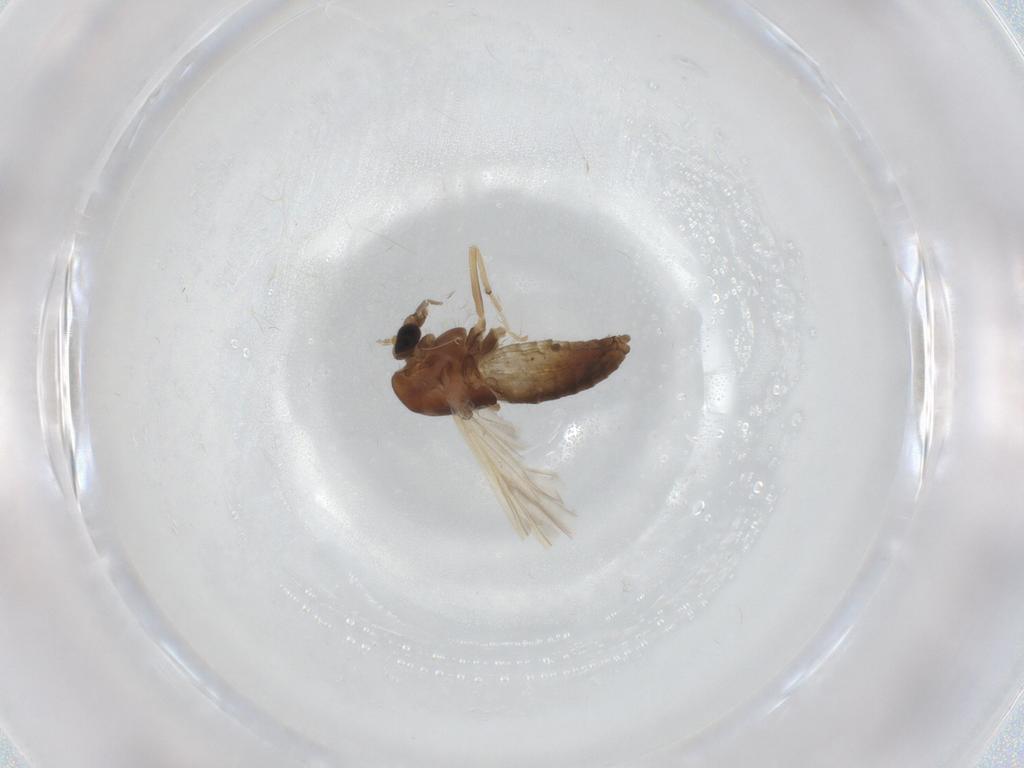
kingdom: Animalia
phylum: Arthropoda
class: Insecta
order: Diptera
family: Chironomidae
